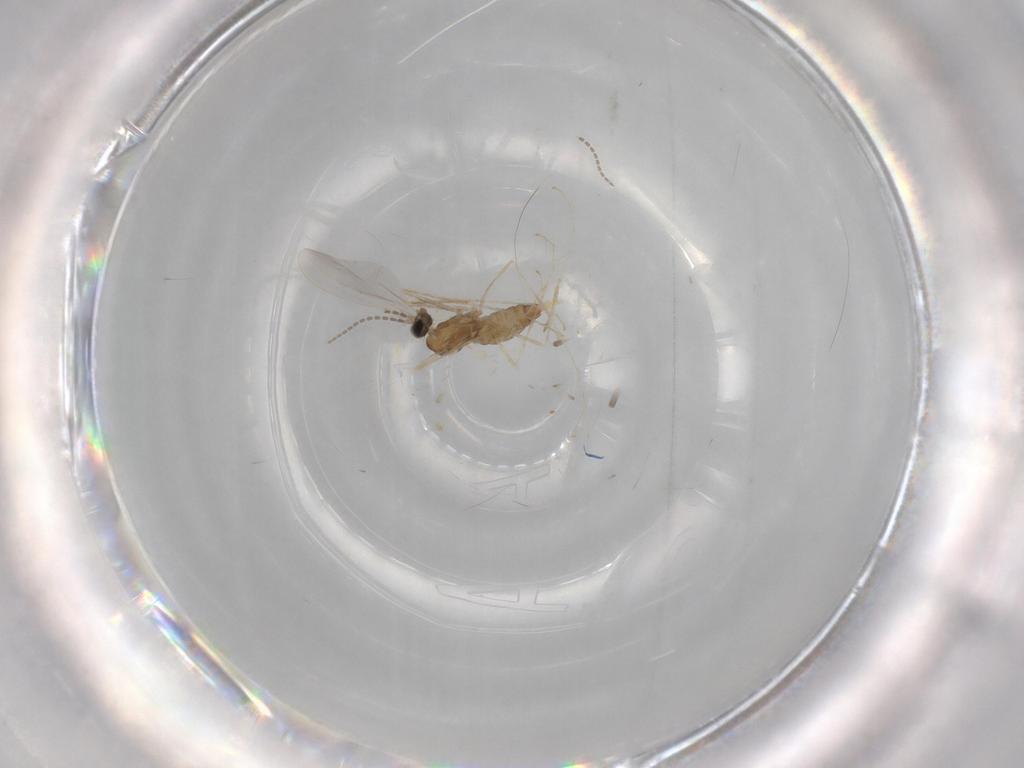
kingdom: Animalia
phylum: Arthropoda
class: Insecta
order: Diptera
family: Cecidomyiidae
